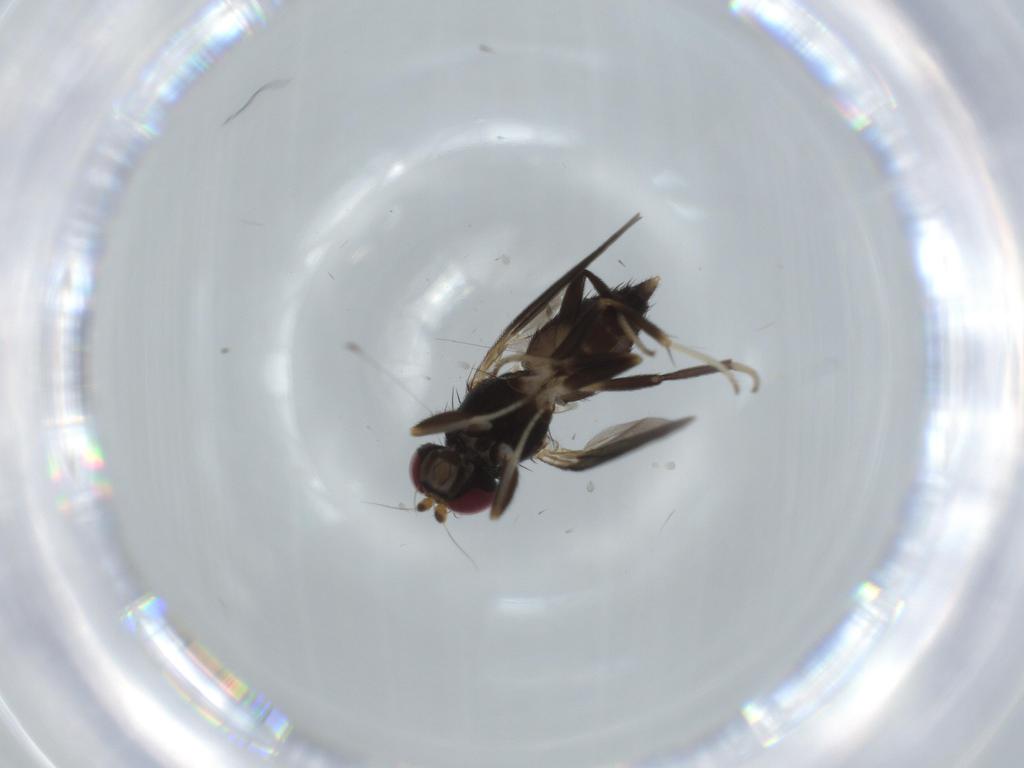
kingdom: Animalia
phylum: Arthropoda
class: Insecta
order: Diptera
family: Clusiidae
